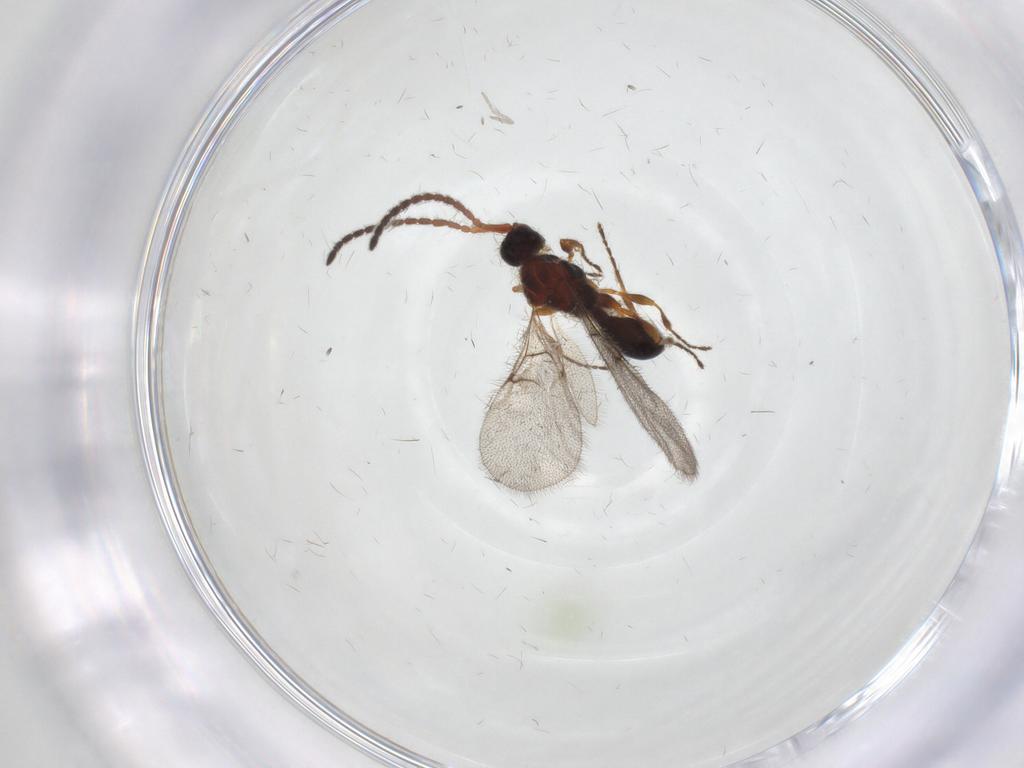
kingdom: Animalia
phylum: Arthropoda
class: Insecta
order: Hymenoptera
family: Diapriidae
